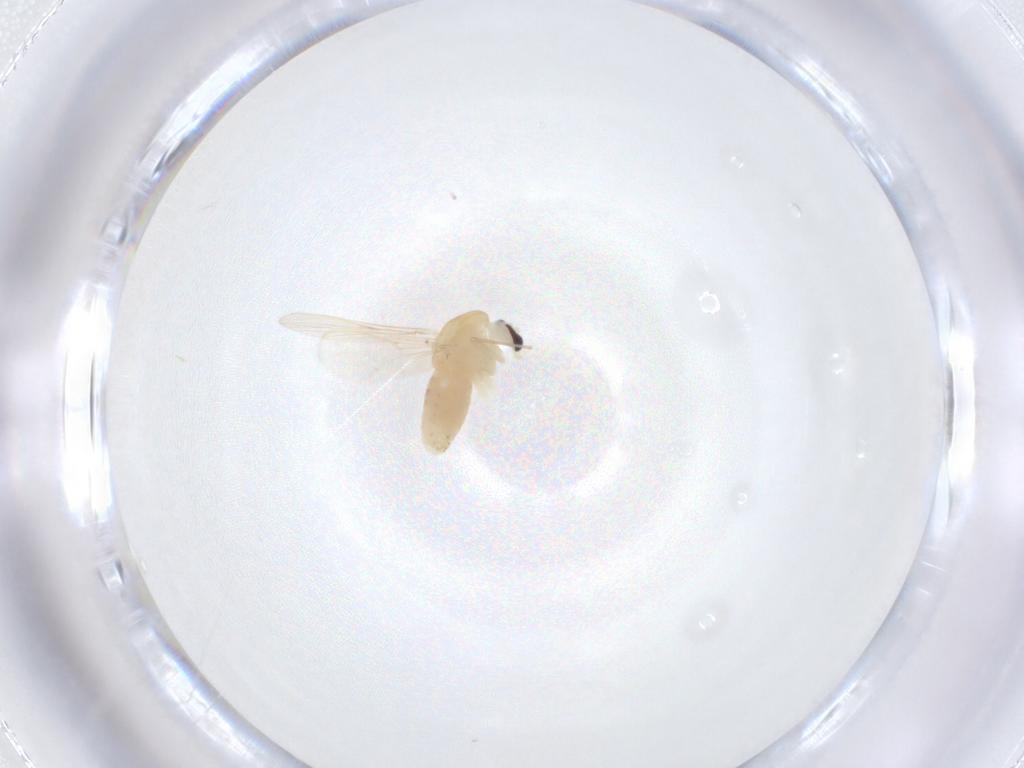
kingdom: Animalia
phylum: Arthropoda
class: Insecta
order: Diptera
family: Chironomidae
